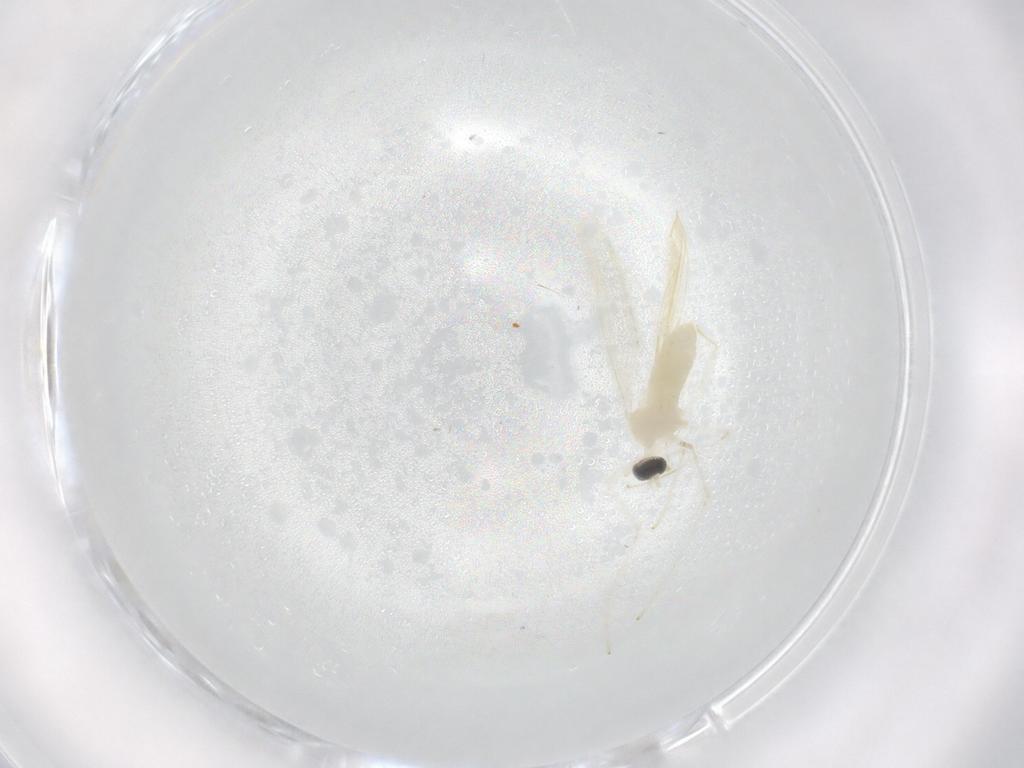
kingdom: Animalia
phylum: Arthropoda
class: Insecta
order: Diptera
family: Cecidomyiidae
